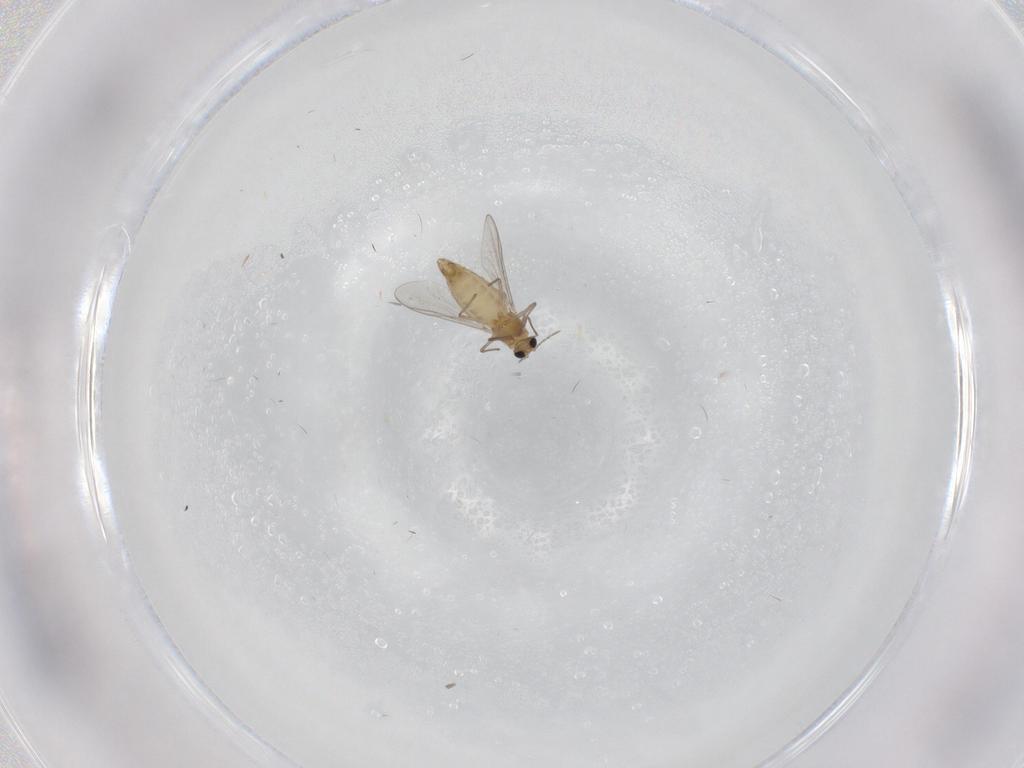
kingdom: Animalia
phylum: Arthropoda
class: Insecta
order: Diptera
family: Chironomidae
